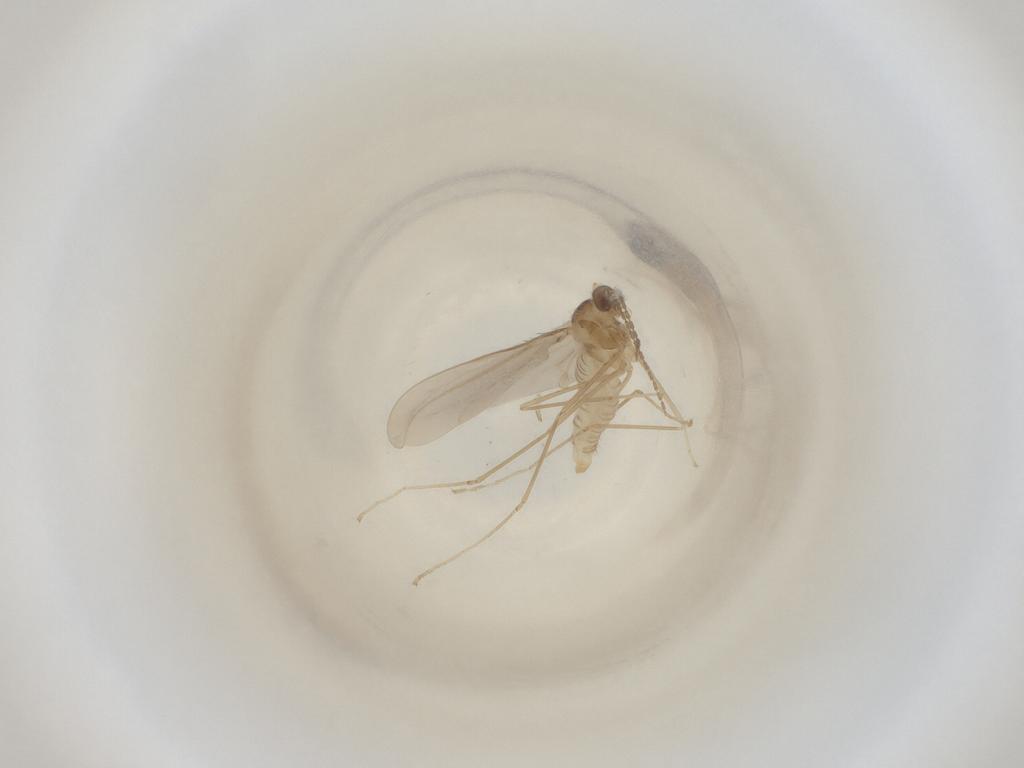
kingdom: Animalia
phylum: Arthropoda
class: Insecta
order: Diptera
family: Cecidomyiidae
